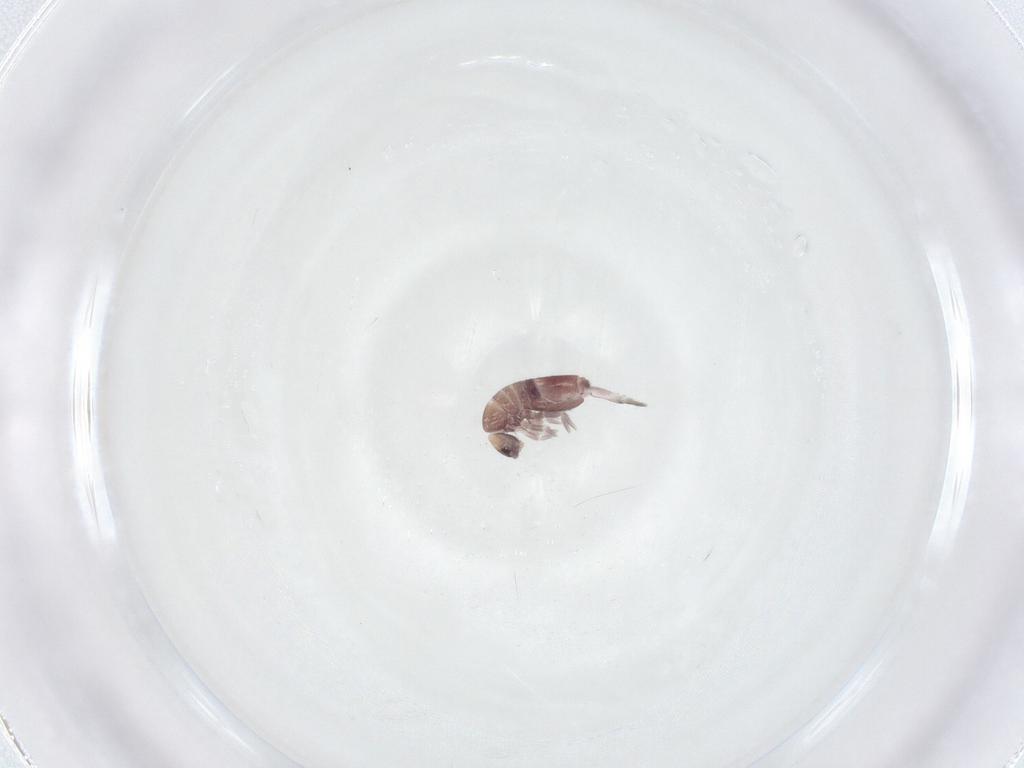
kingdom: Animalia
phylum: Arthropoda
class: Collembola
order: Entomobryomorpha
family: Entomobryidae
